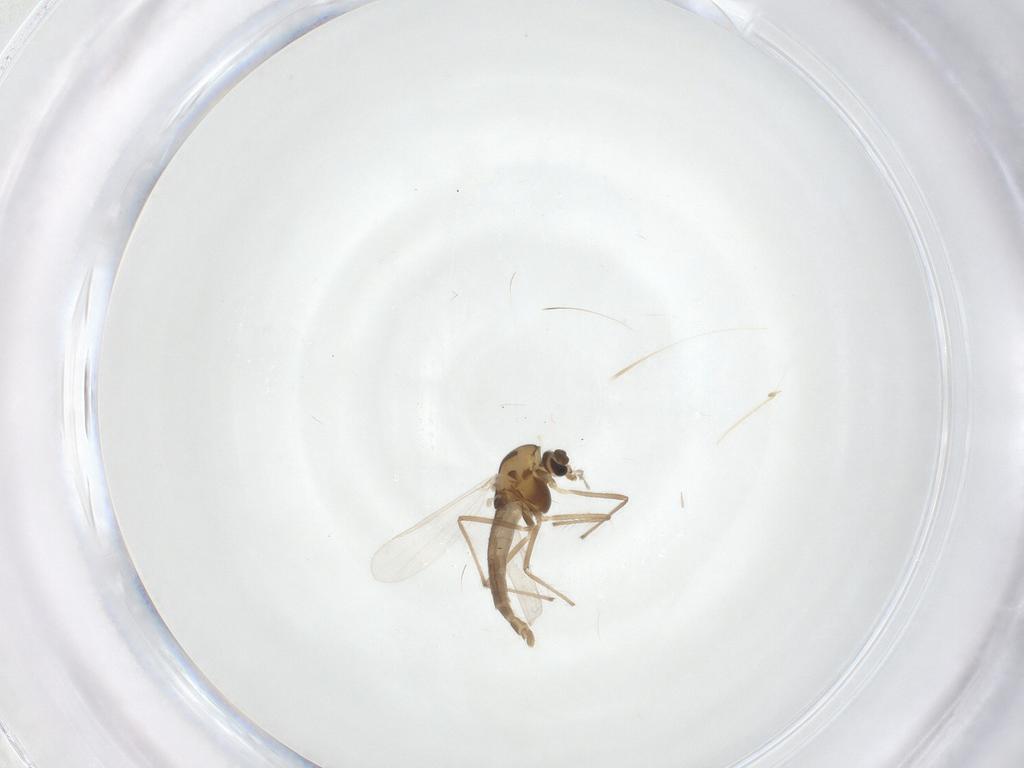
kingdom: Animalia
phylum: Arthropoda
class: Insecta
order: Diptera
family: Chironomidae
